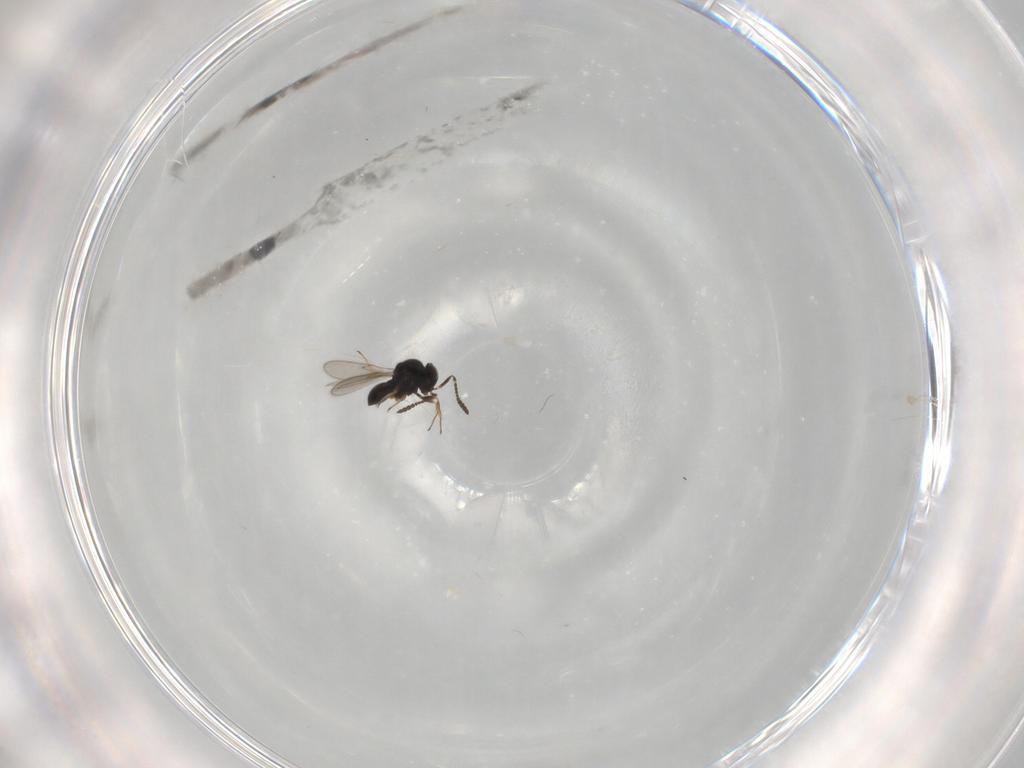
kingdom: Animalia
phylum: Arthropoda
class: Insecta
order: Hymenoptera
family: Scelionidae
